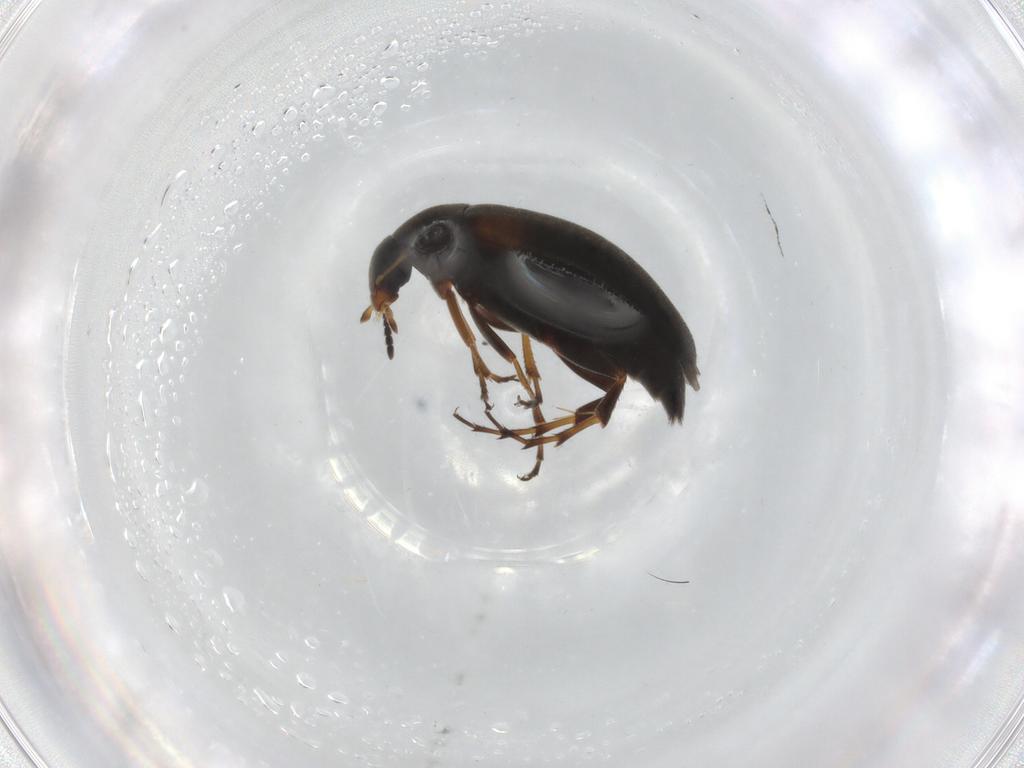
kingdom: Animalia
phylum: Arthropoda
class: Insecta
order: Coleoptera
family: Scraptiidae
